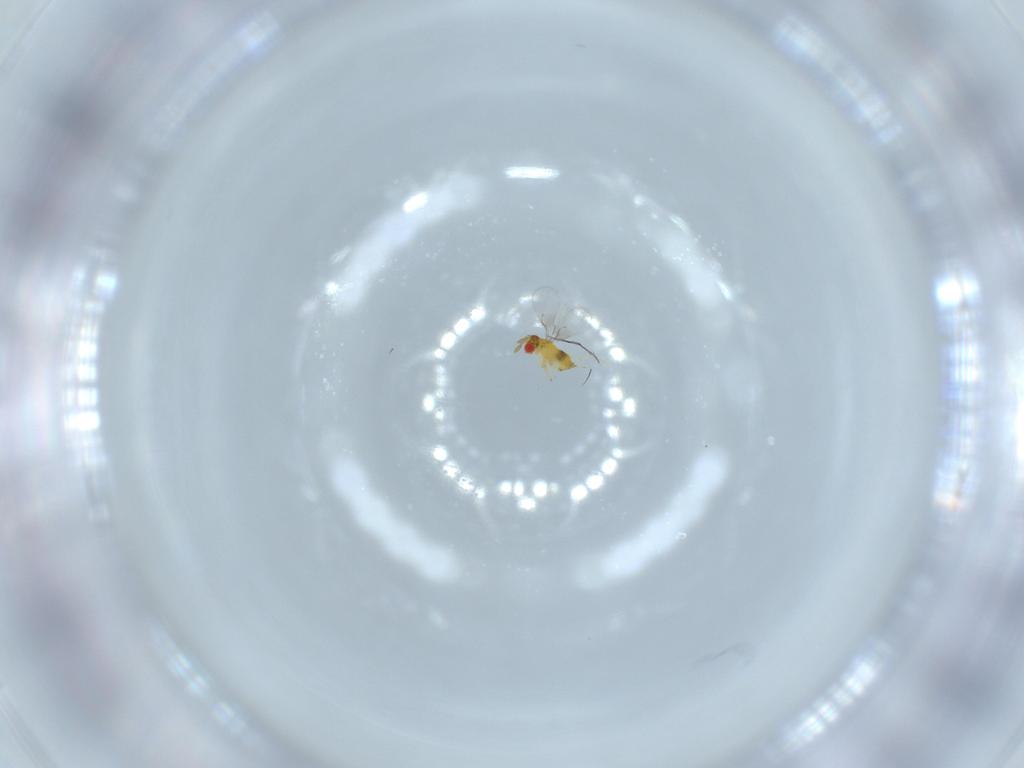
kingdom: Animalia
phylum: Arthropoda
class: Insecta
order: Hymenoptera
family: Trichogrammatidae
